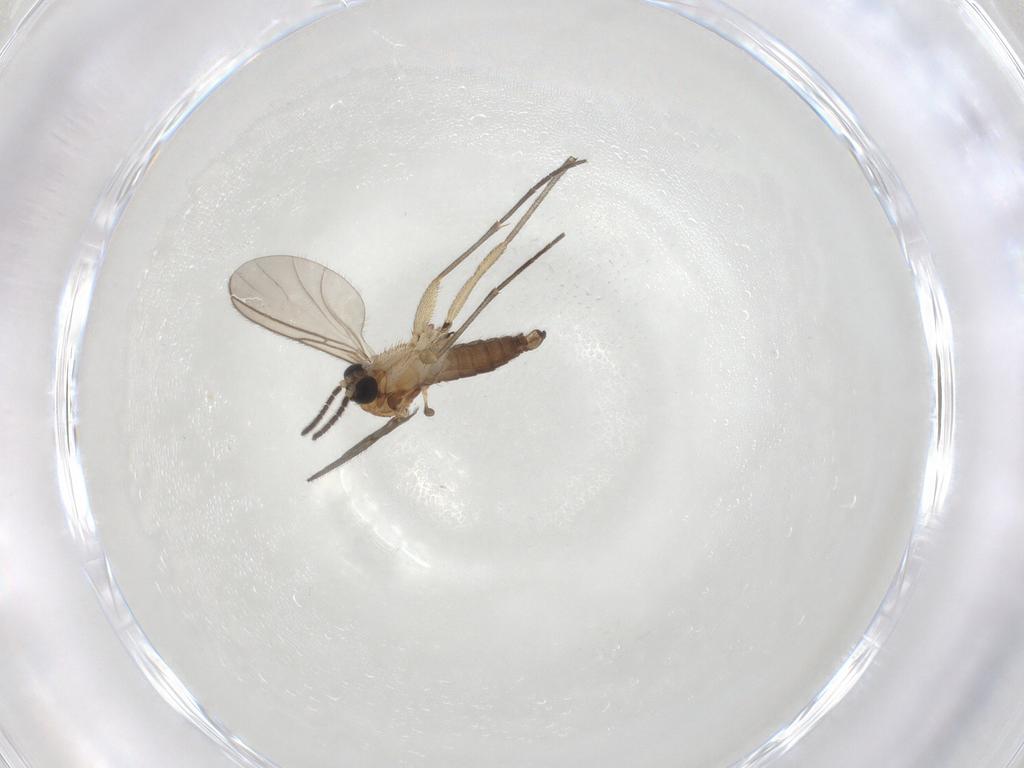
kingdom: Animalia
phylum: Arthropoda
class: Insecta
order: Diptera
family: Sciaridae
